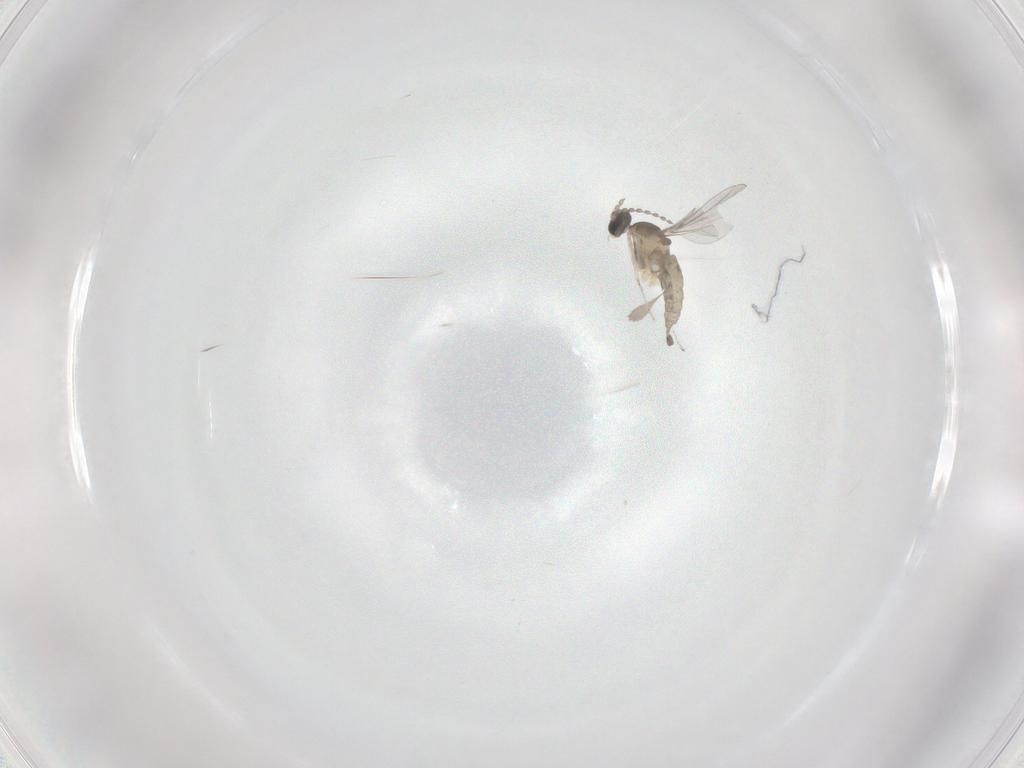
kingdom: Animalia
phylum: Arthropoda
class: Insecta
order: Diptera
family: Cecidomyiidae
